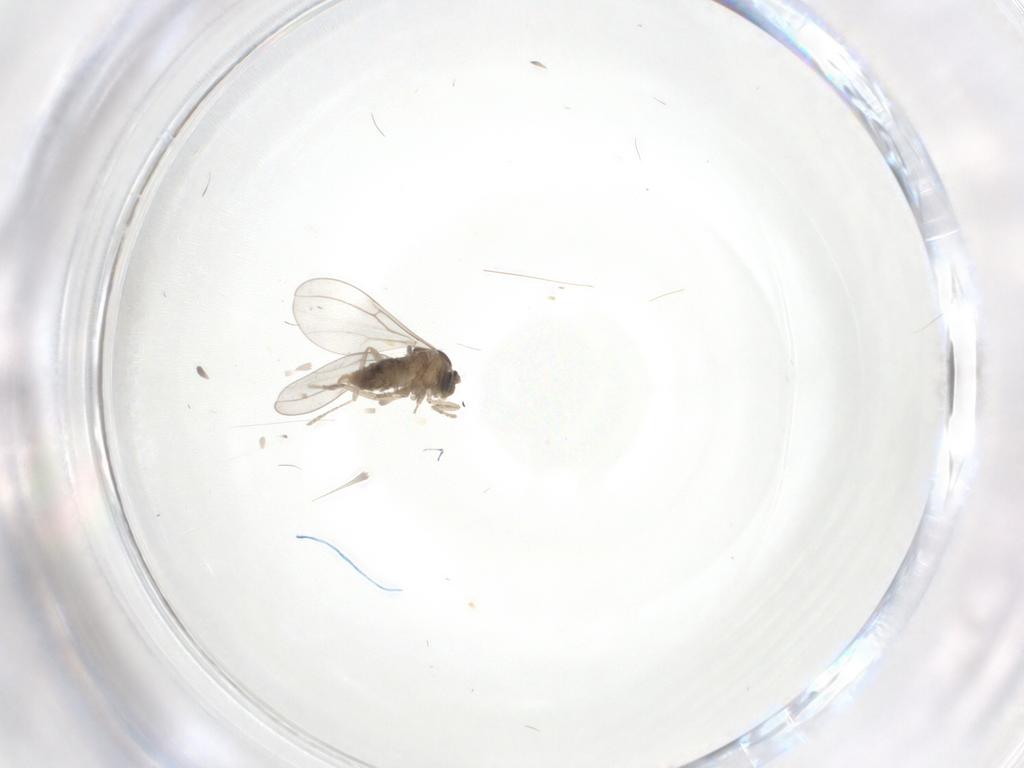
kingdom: Animalia
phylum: Arthropoda
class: Insecta
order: Diptera
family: Cecidomyiidae
